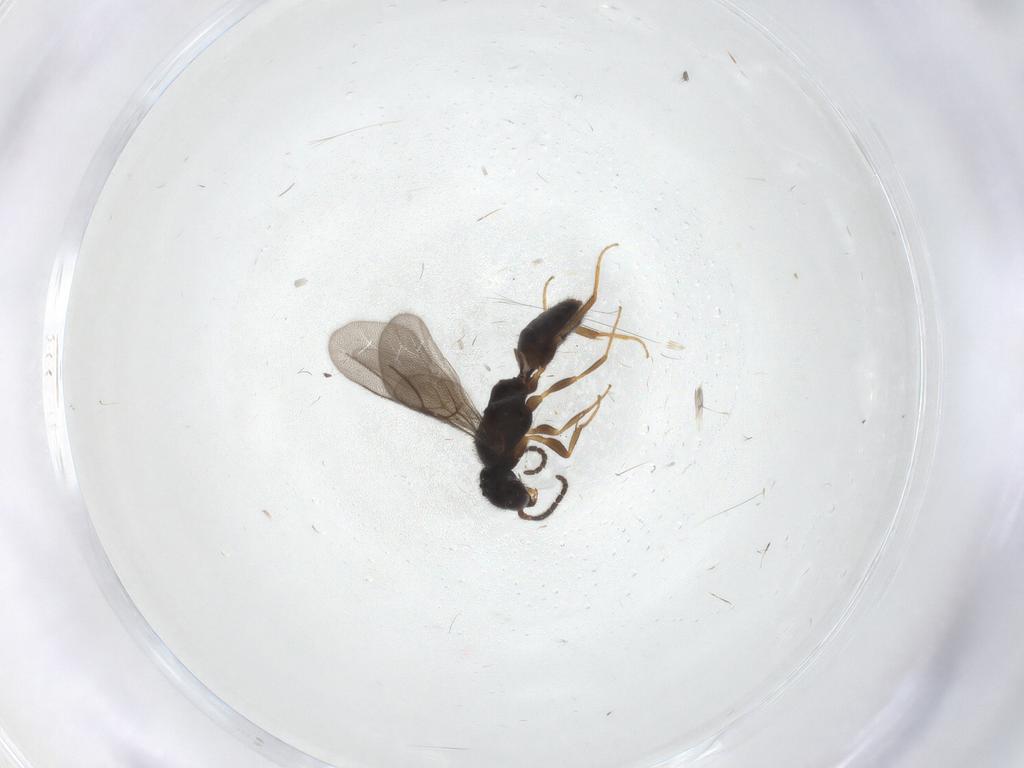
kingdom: Animalia
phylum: Arthropoda
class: Insecta
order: Hymenoptera
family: Bethylidae
